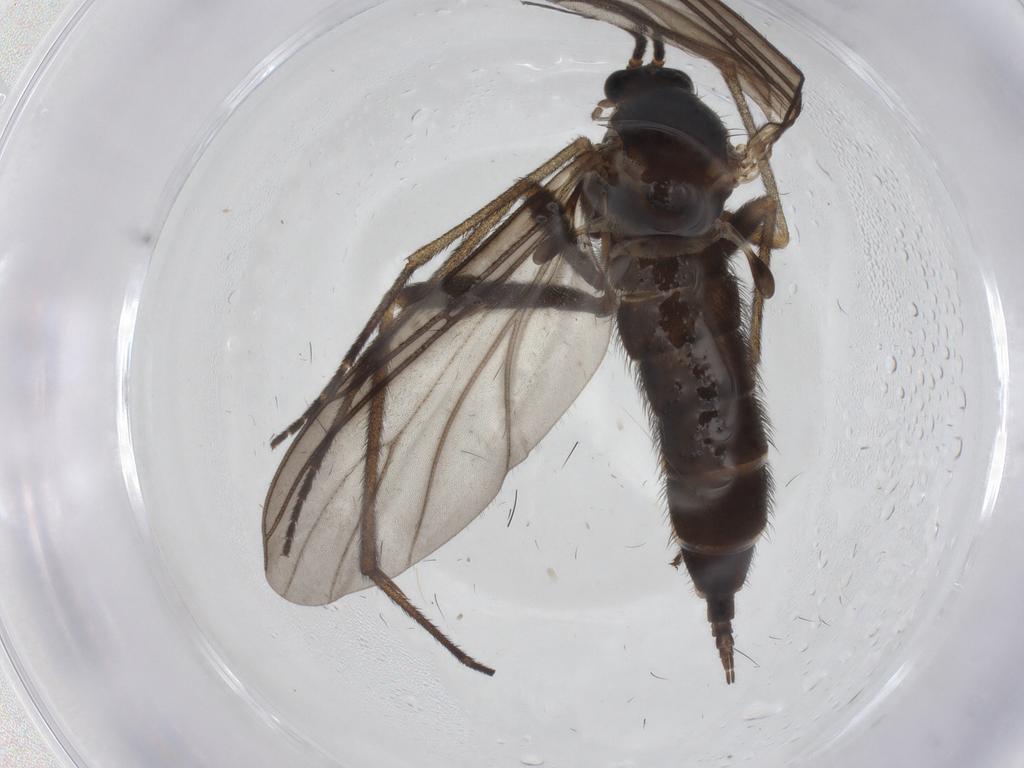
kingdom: Animalia
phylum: Arthropoda
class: Insecta
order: Diptera
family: Sciaridae
